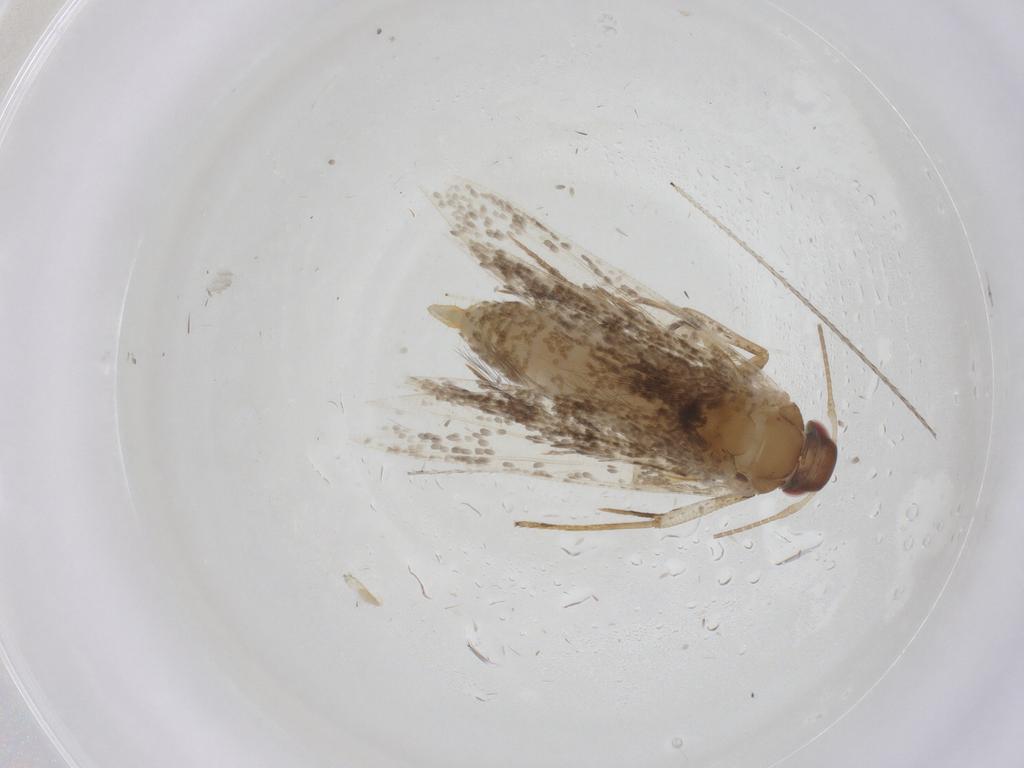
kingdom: Animalia
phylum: Arthropoda
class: Insecta
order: Lepidoptera
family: Gelechiidae
